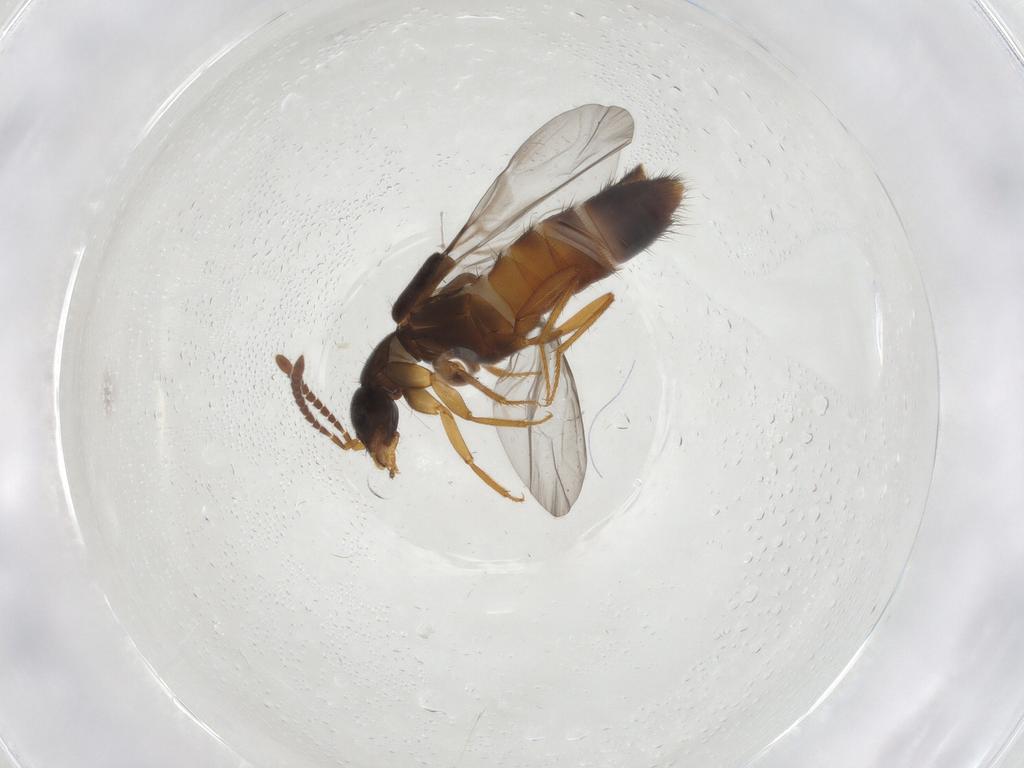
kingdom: Animalia
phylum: Arthropoda
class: Insecta
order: Coleoptera
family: Staphylinidae
